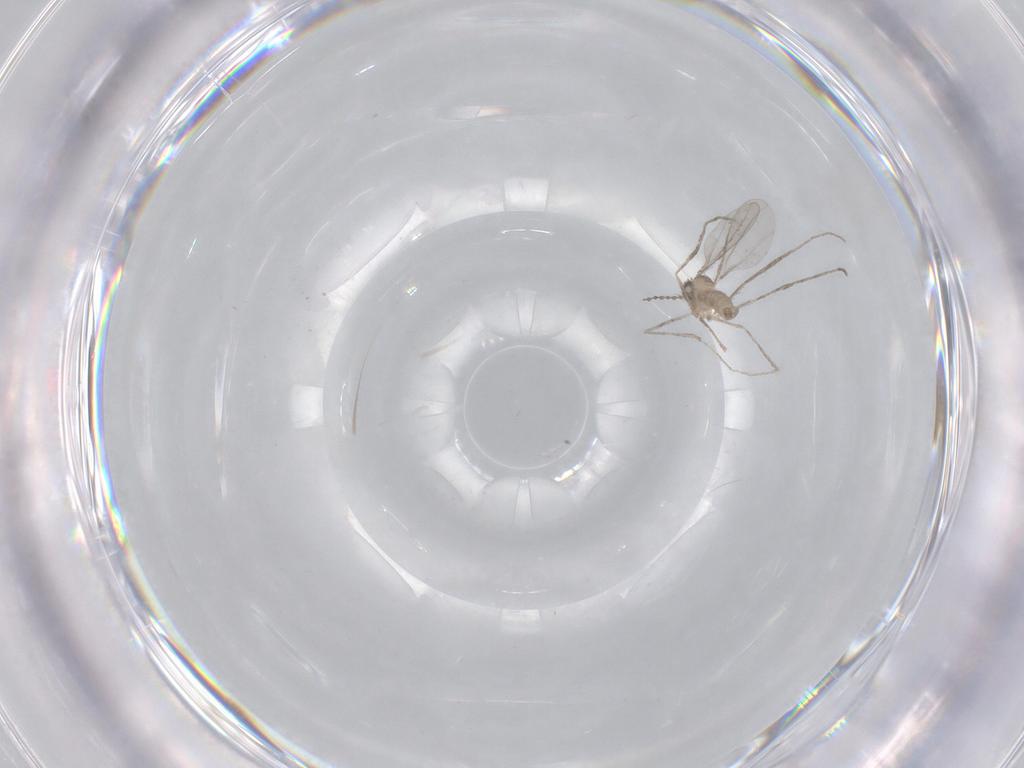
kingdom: Animalia
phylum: Arthropoda
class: Insecta
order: Diptera
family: Cecidomyiidae
